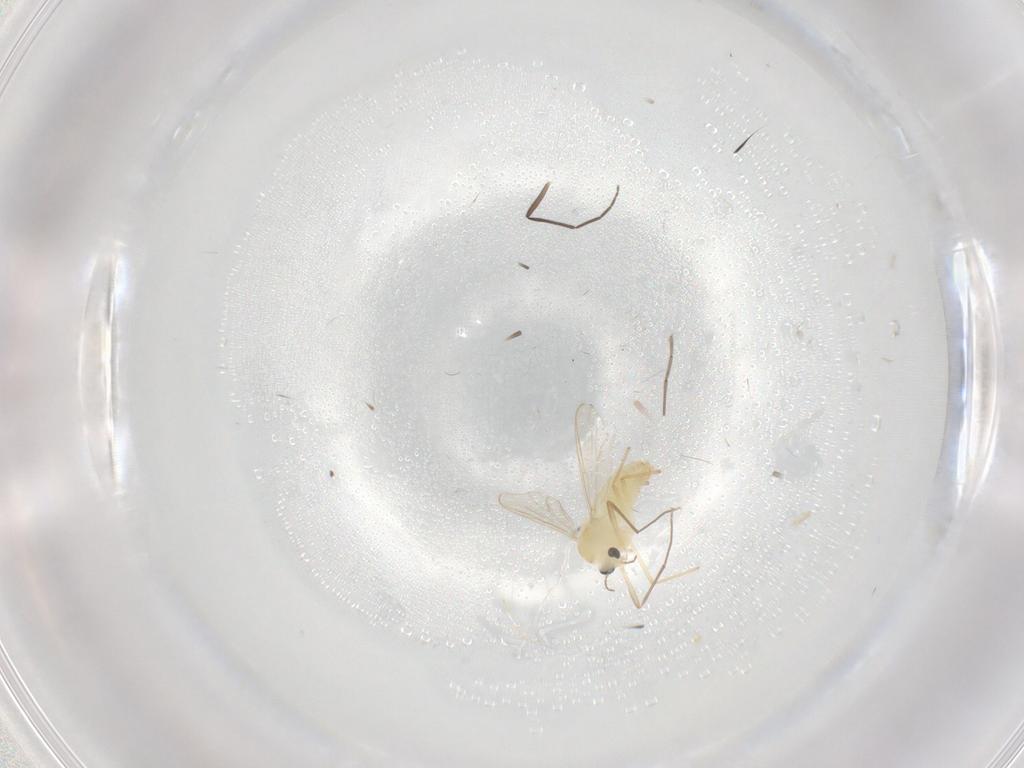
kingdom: Animalia
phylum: Arthropoda
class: Insecta
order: Diptera
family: Chironomidae
